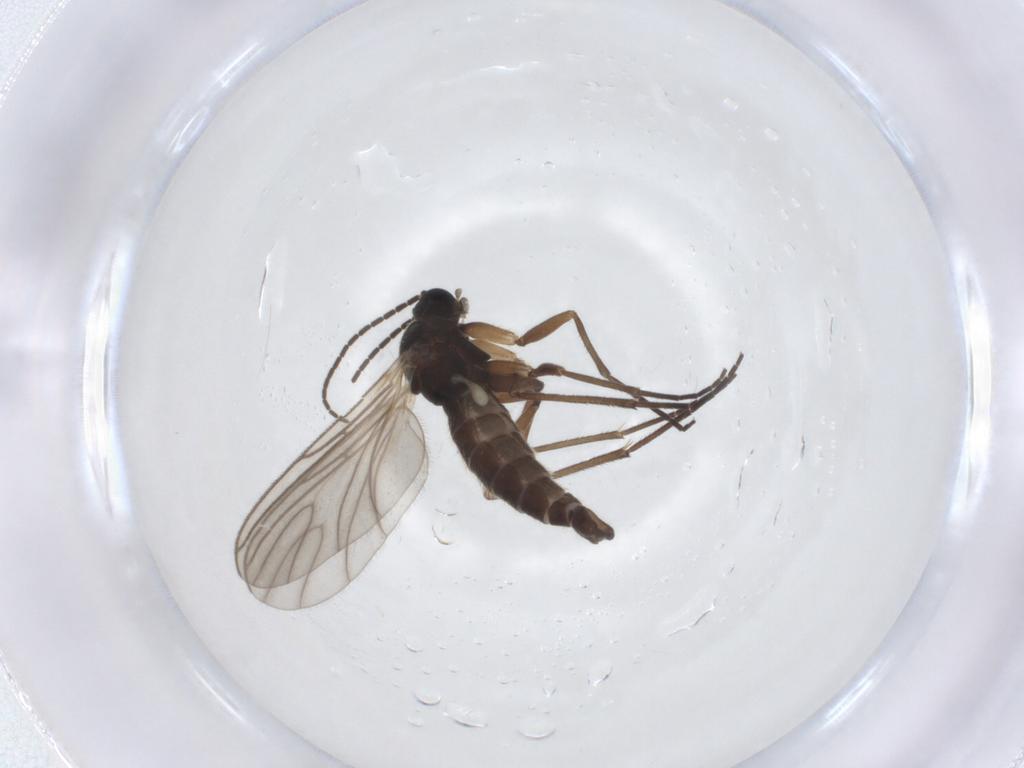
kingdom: Animalia
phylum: Arthropoda
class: Insecta
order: Diptera
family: Sciaridae
